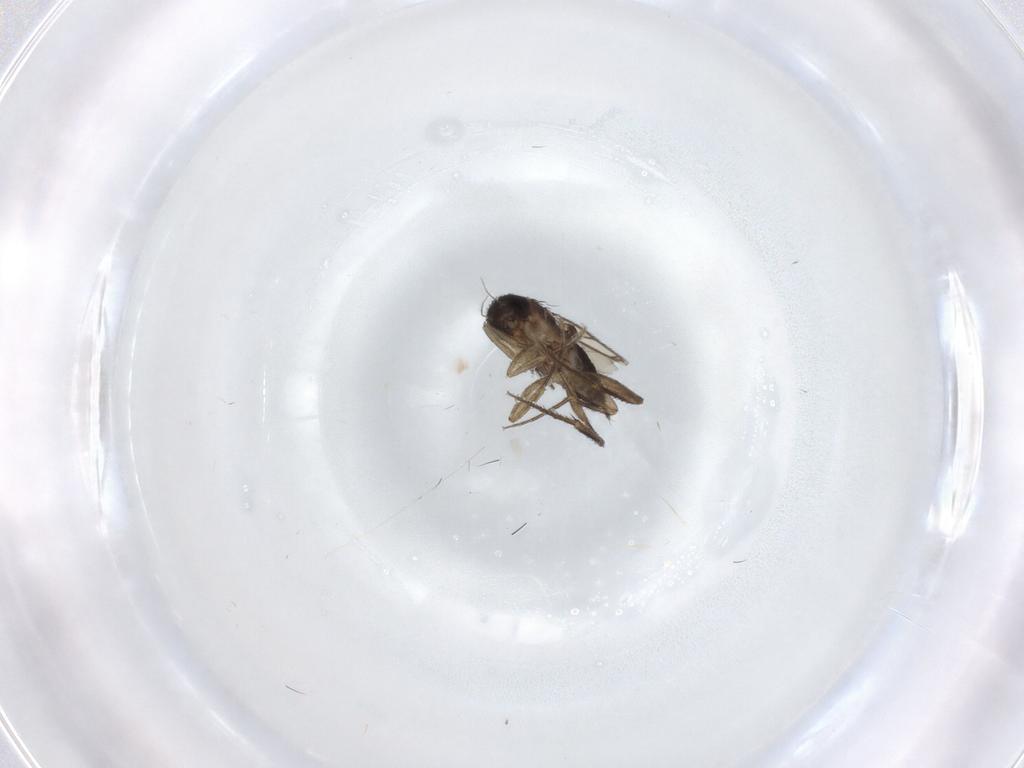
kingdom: Animalia
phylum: Arthropoda
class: Insecta
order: Diptera
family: Phoridae
